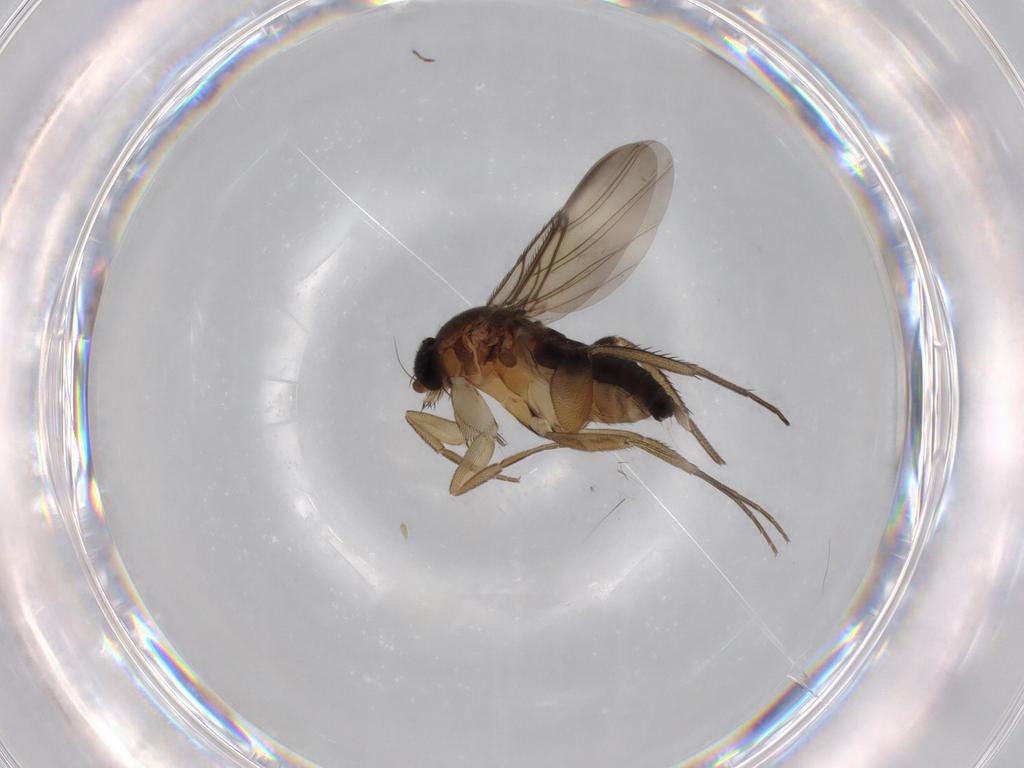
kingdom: Animalia
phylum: Arthropoda
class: Insecta
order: Diptera
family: Phoridae
